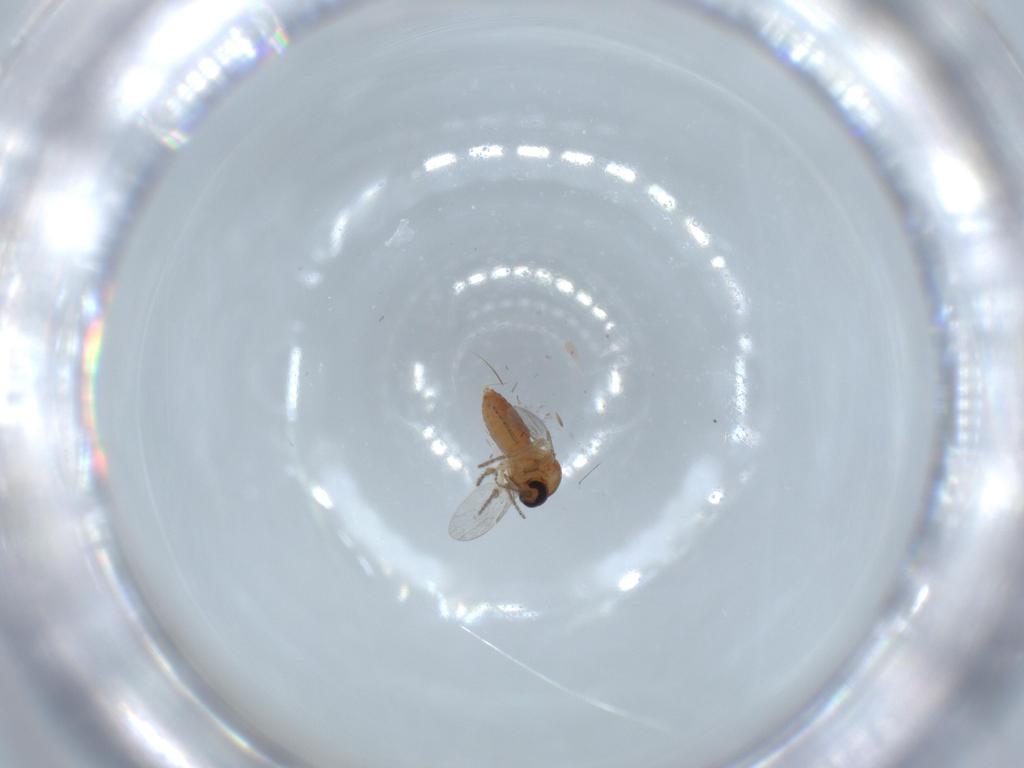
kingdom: Animalia
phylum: Arthropoda
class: Insecta
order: Diptera
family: Ceratopogonidae
